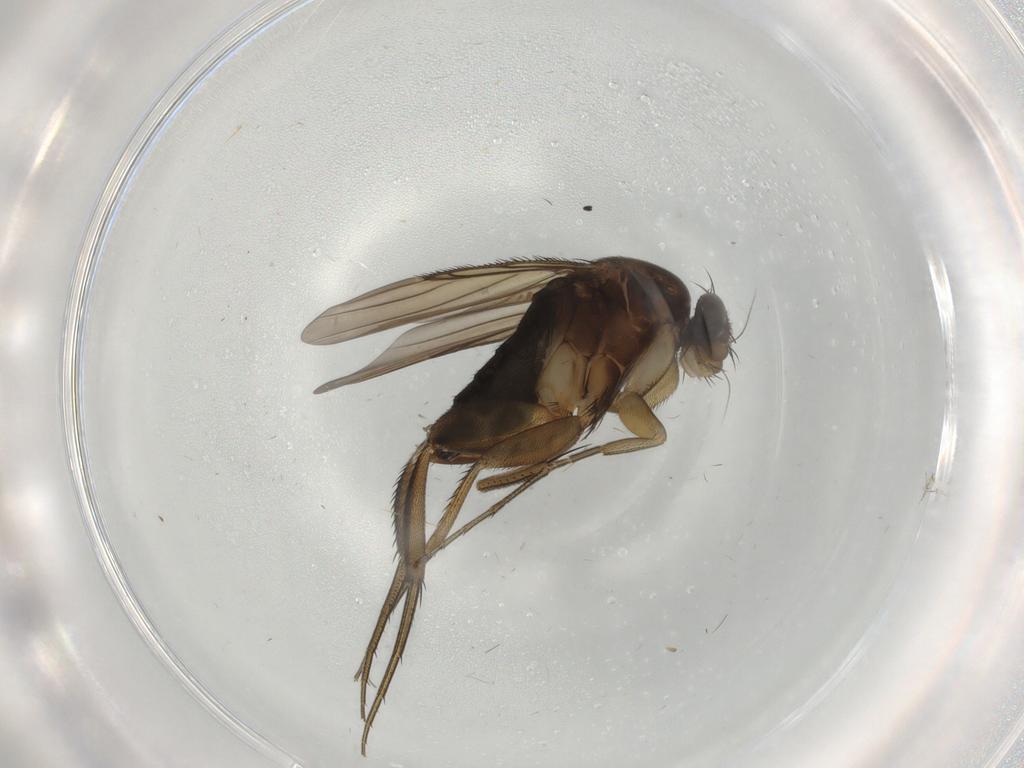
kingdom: Animalia
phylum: Arthropoda
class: Insecta
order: Diptera
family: Phoridae
